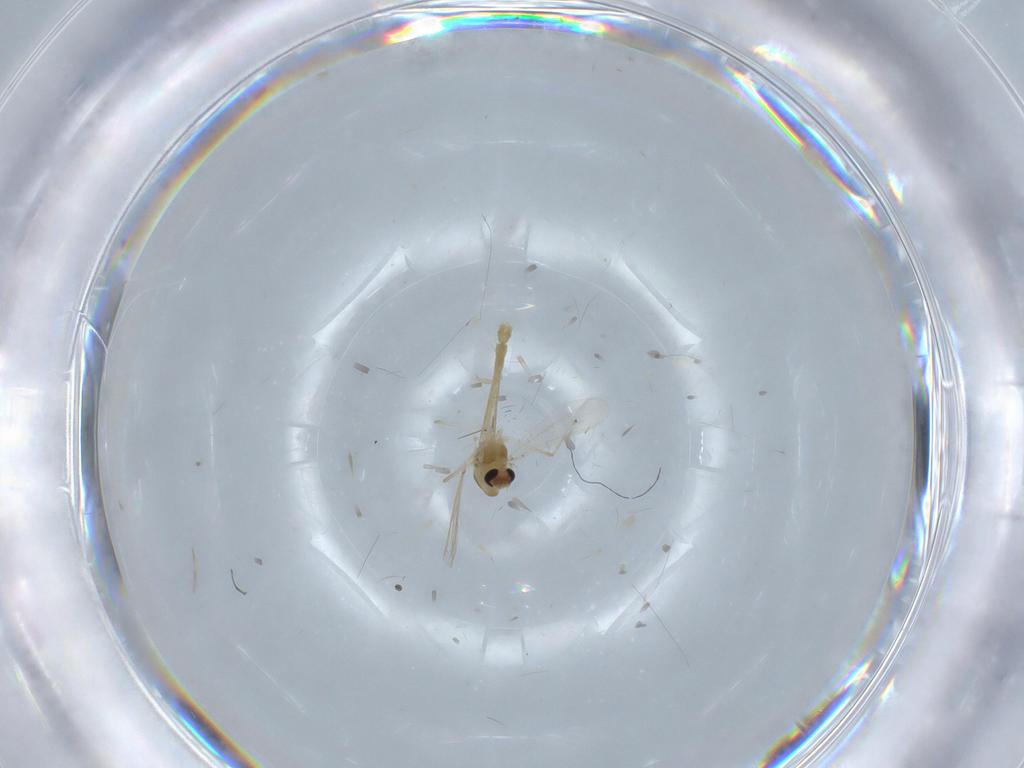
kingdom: Animalia
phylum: Arthropoda
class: Insecta
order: Diptera
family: Chironomidae
